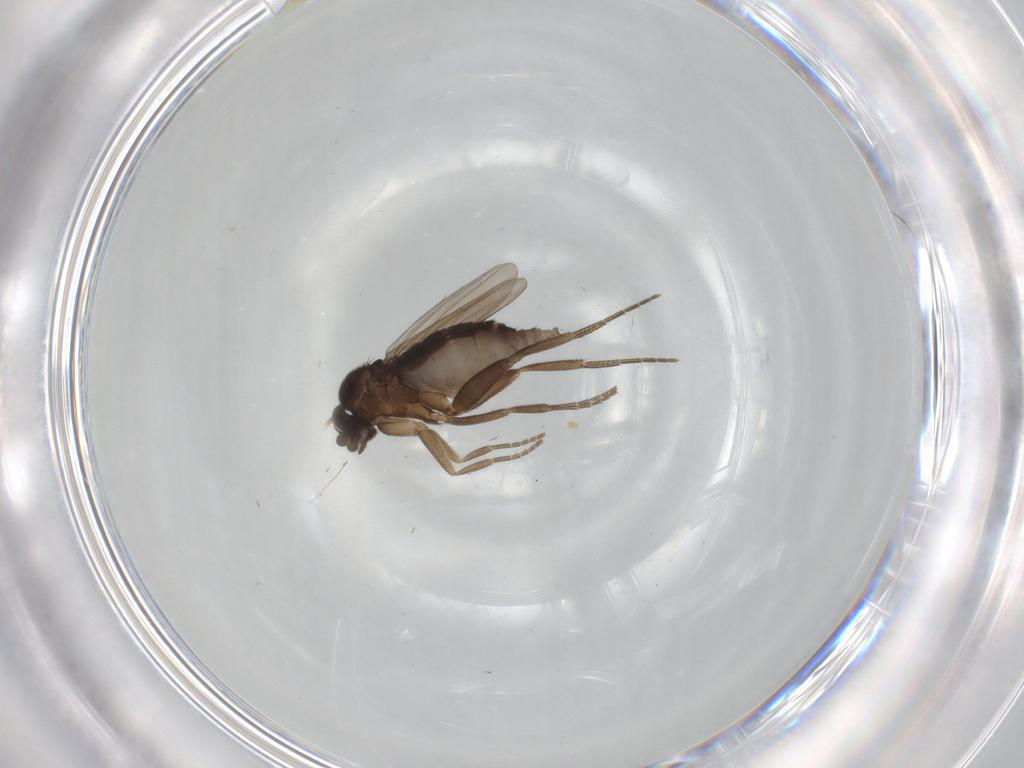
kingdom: Animalia
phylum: Arthropoda
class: Insecta
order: Diptera
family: Phoridae
